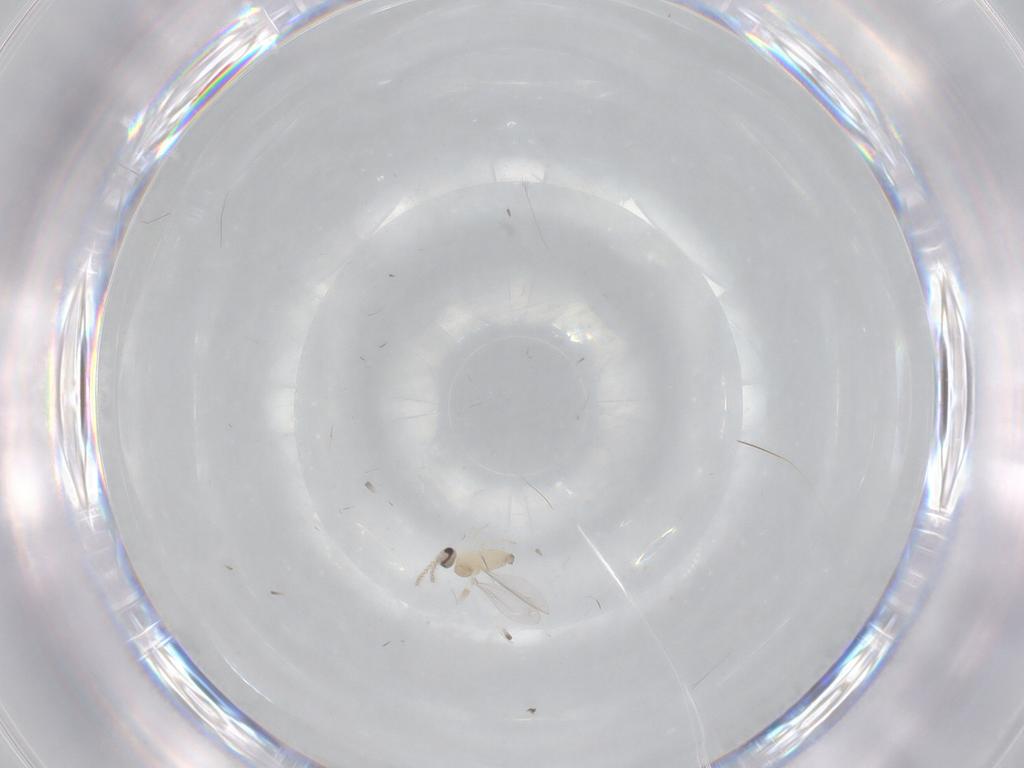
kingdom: Animalia
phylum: Arthropoda
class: Insecta
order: Diptera
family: Cecidomyiidae
